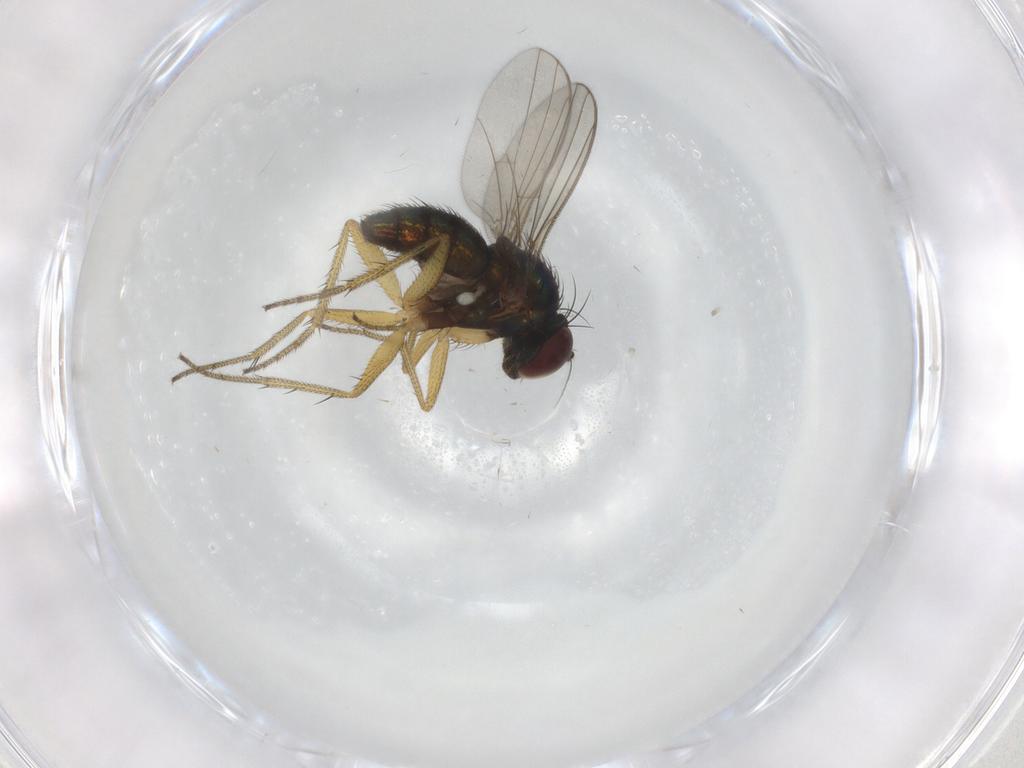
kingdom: Animalia
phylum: Arthropoda
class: Insecta
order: Diptera
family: Dolichopodidae
